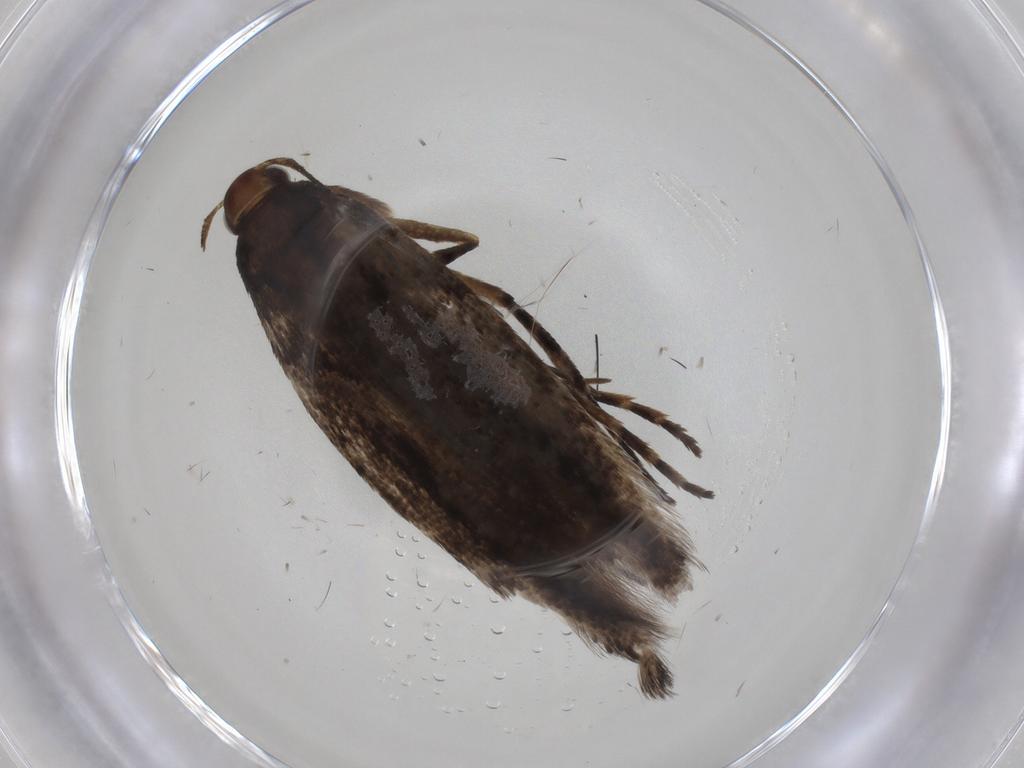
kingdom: Animalia
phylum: Arthropoda
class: Insecta
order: Lepidoptera
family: Gelechiidae
